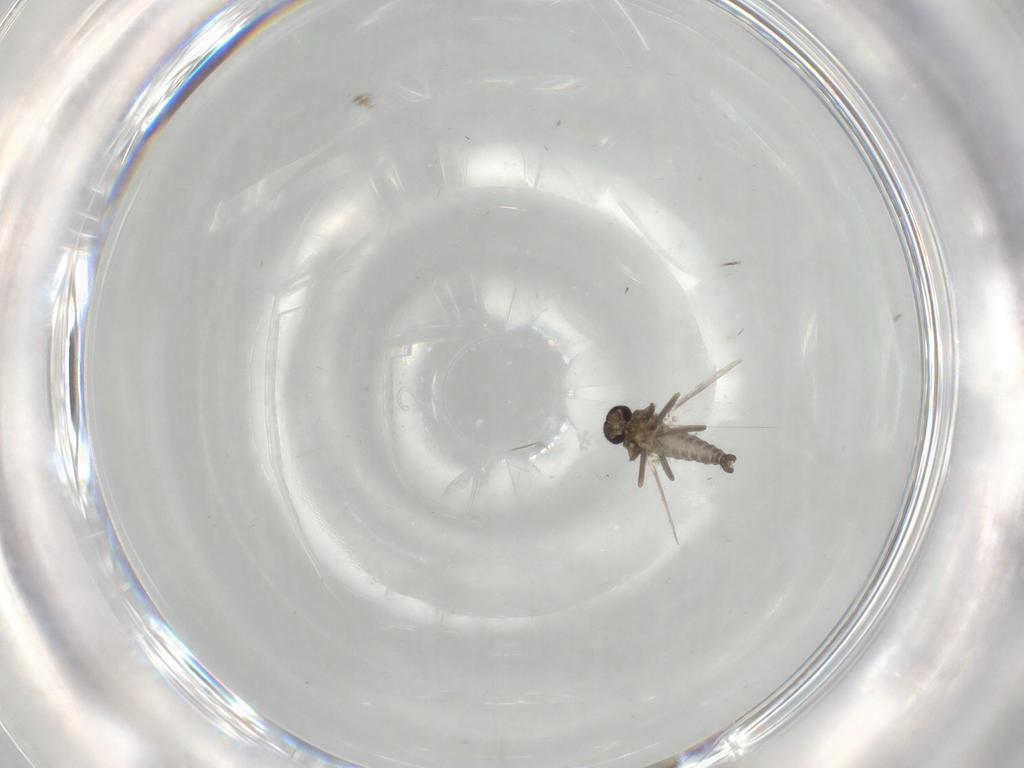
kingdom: Animalia
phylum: Arthropoda
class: Insecta
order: Diptera
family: Ceratopogonidae
